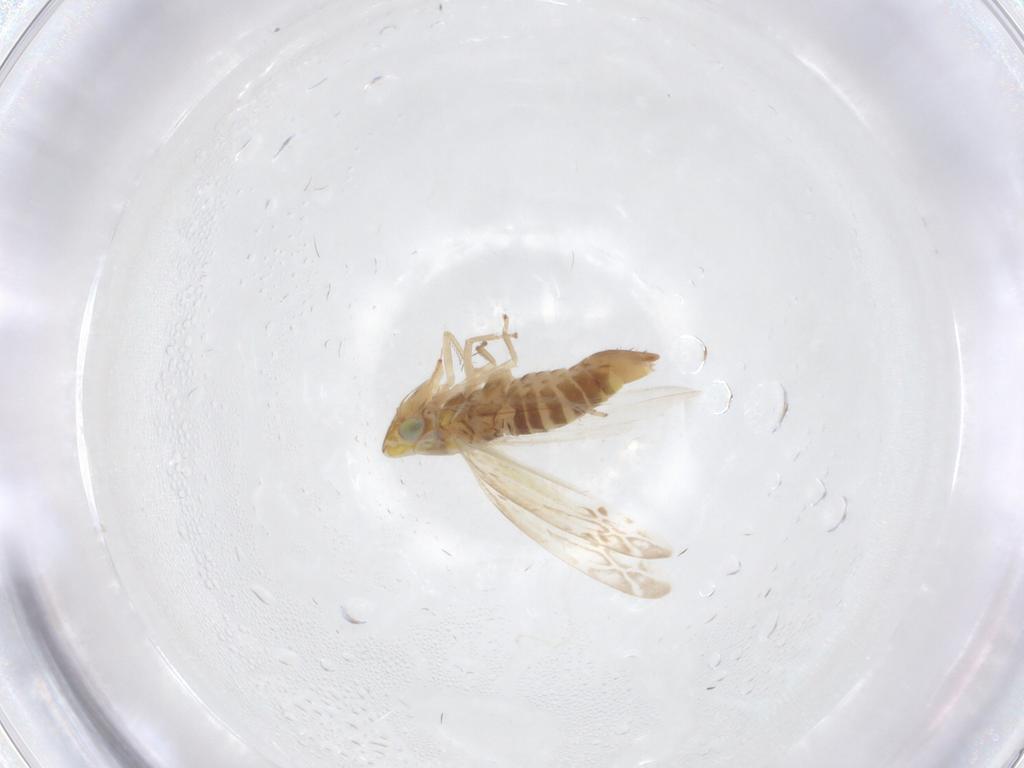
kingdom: Animalia
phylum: Arthropoda
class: Insecta
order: Hemiptera
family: Cicadellidae
